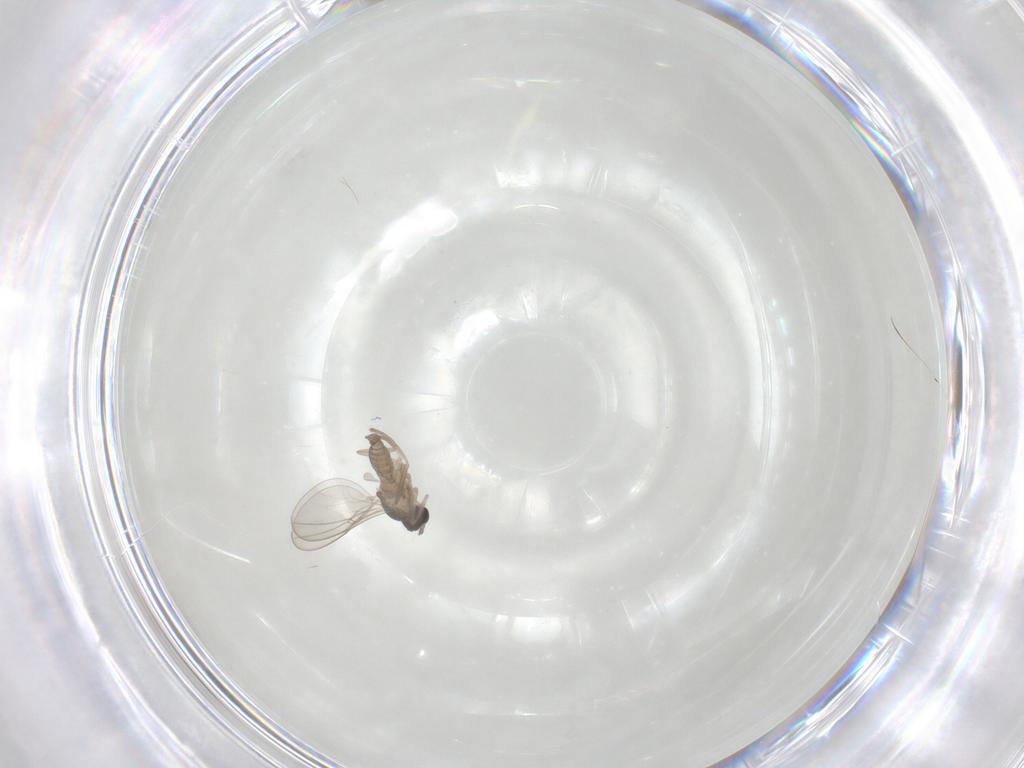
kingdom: Animalia
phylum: Arthropoda
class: Insecta
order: Diptera
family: Cecidomyiidae
